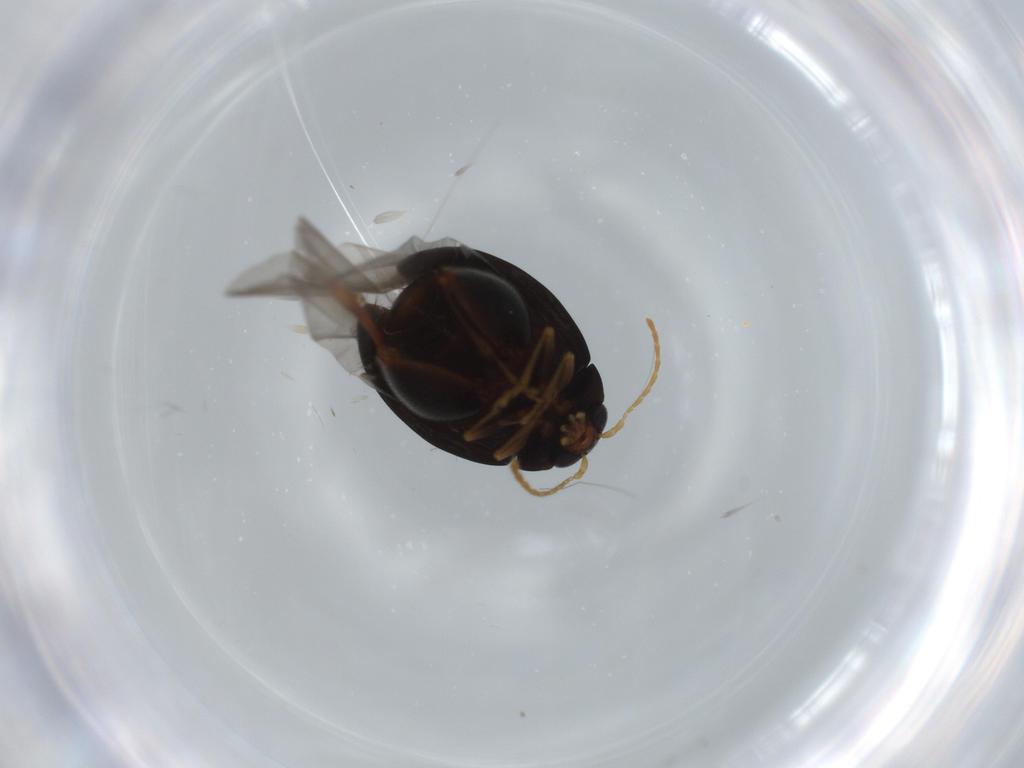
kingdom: Animalia
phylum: Arthropoda
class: Insecta
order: Coleoptera
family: Chrysomelidae
